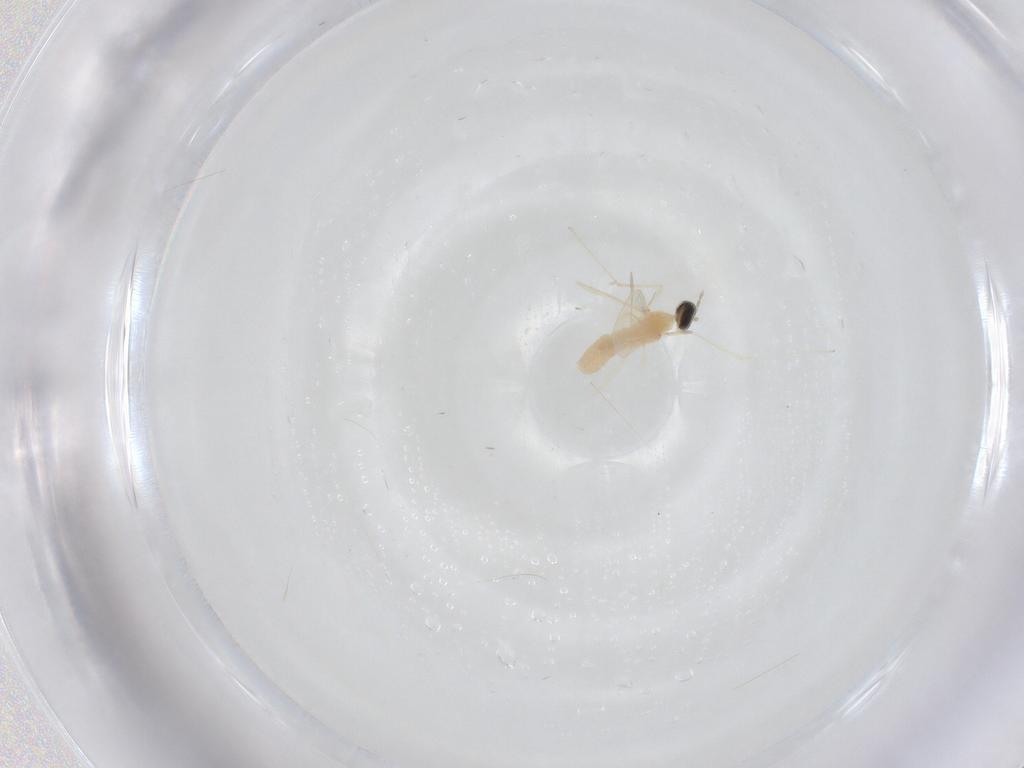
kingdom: Animalia
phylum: Arthropoda
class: Insecta
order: Diptera
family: Cecidomyiidae
